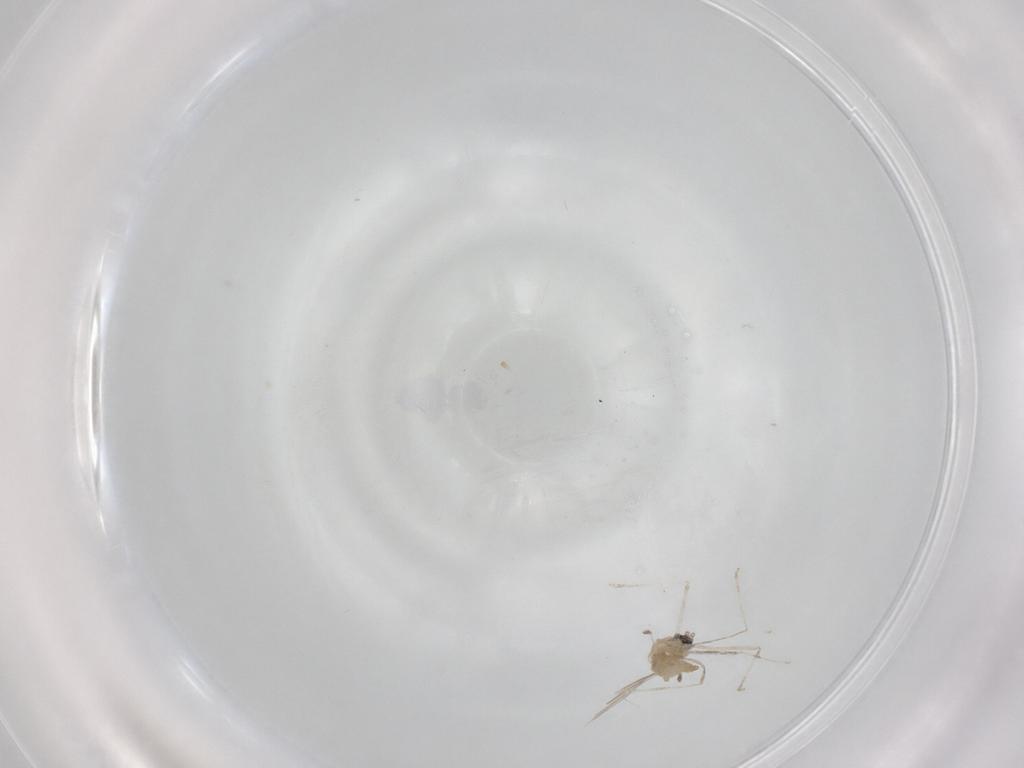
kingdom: Animalia
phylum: Arthropoda
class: Insecta
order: Diptera
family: Cecidomyiidae
